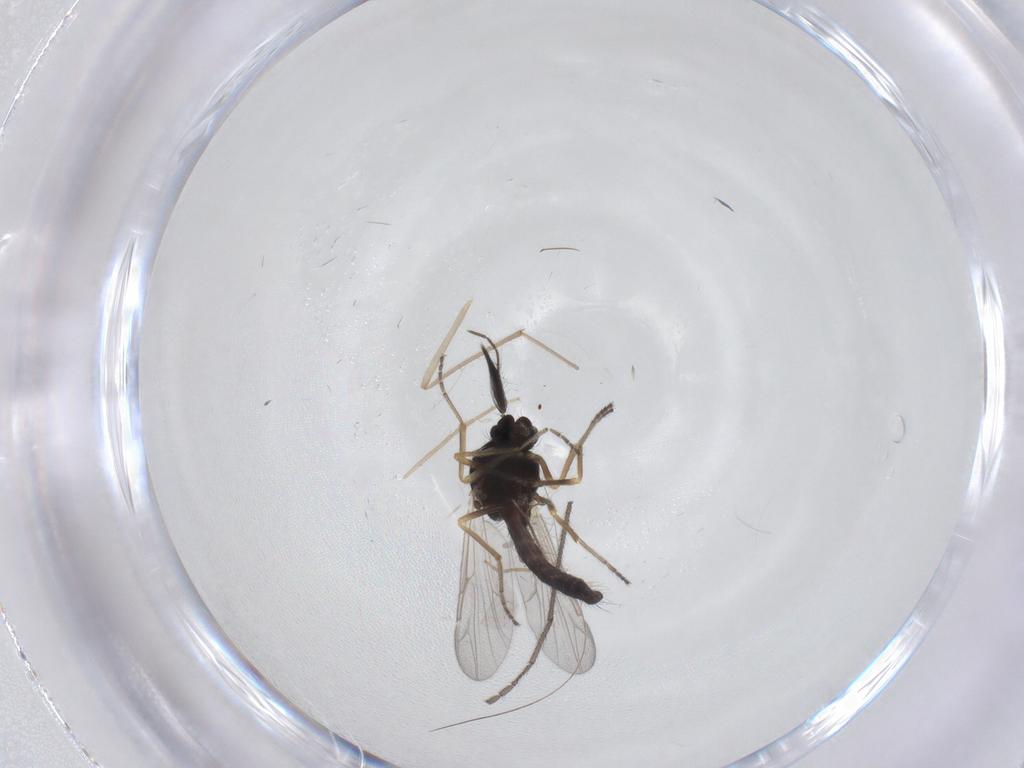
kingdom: Animalia
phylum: Arthropoda
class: Insecta
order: Diptera
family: Ceratopogonidae
